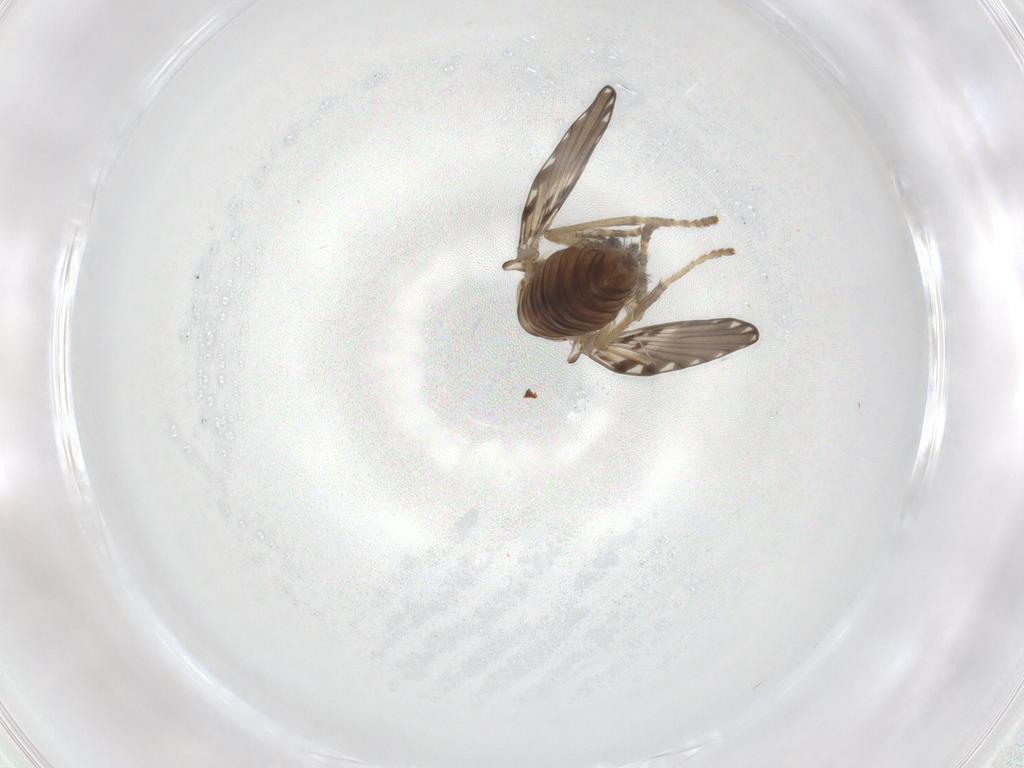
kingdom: Animalia
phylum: Arthropoda
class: Insecta
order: Diptera
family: Psychodidae
